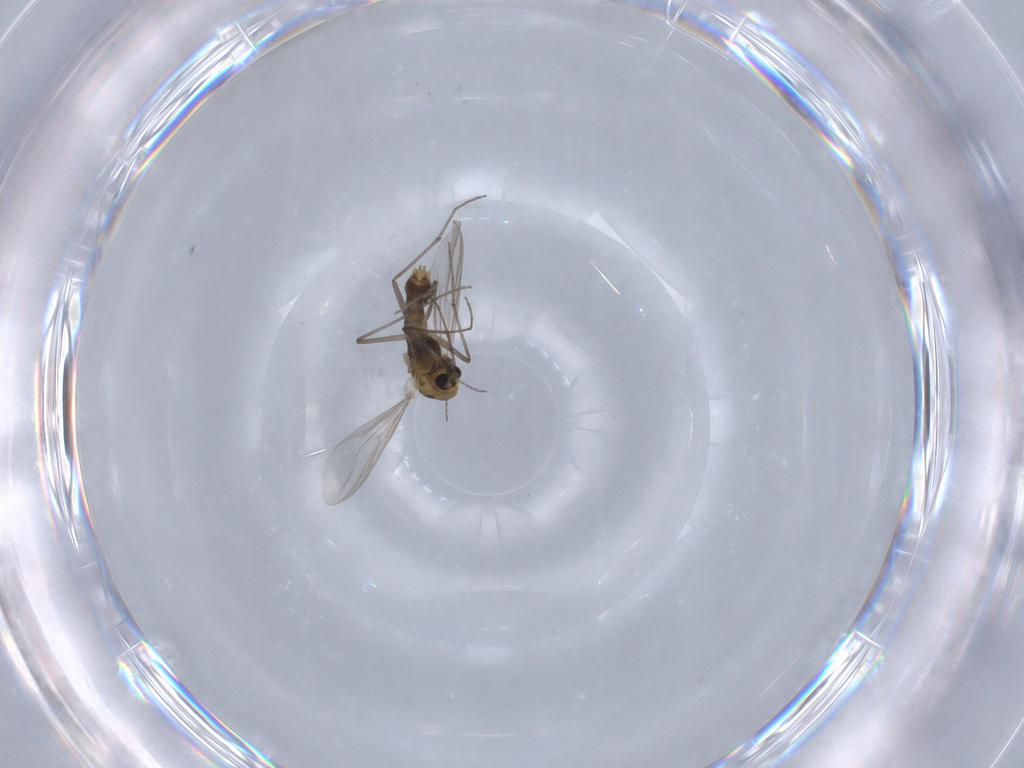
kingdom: Animalia
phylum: Arthropoda
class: Insecta
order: Diptera
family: Chironomidae
